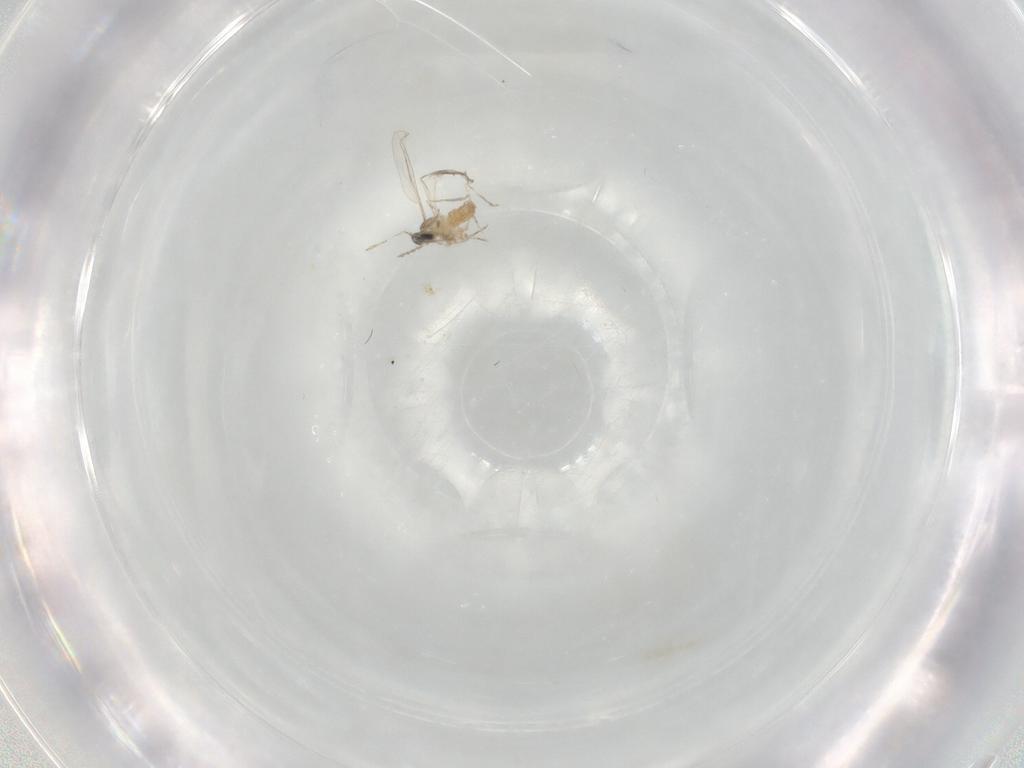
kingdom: Animalia
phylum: Arthropoda
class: Insecta
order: Diptera
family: Cecidomyiidae
